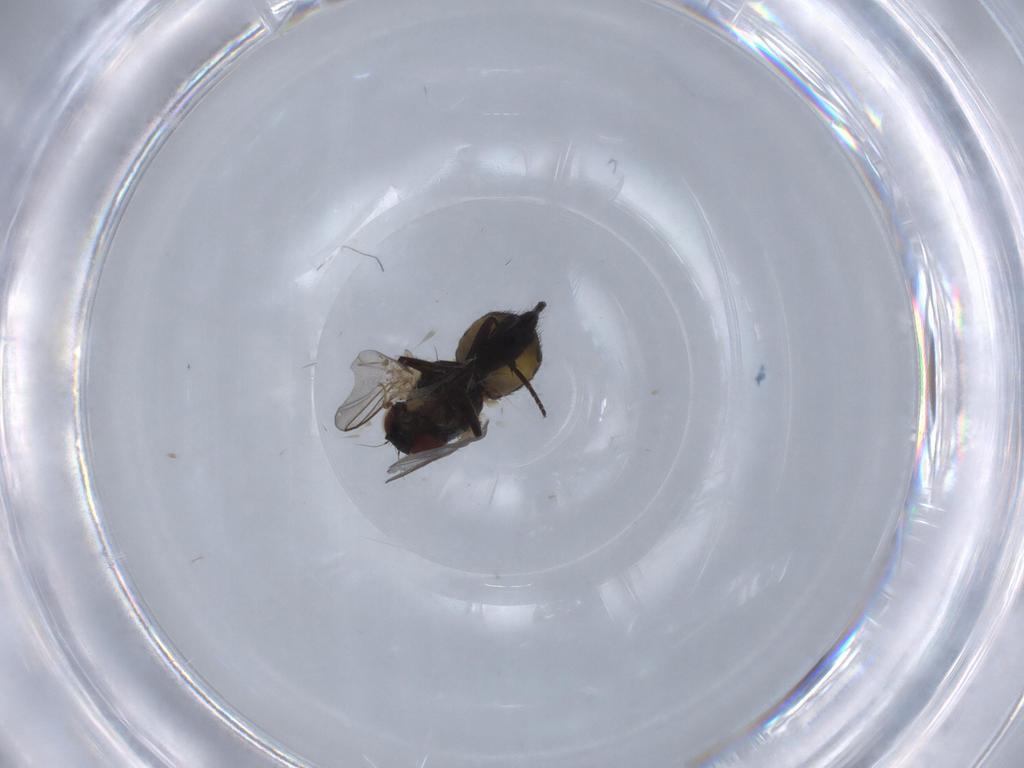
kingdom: Animalia
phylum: Arthropoda
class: Insecta
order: Diptera
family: Scatopsidae
